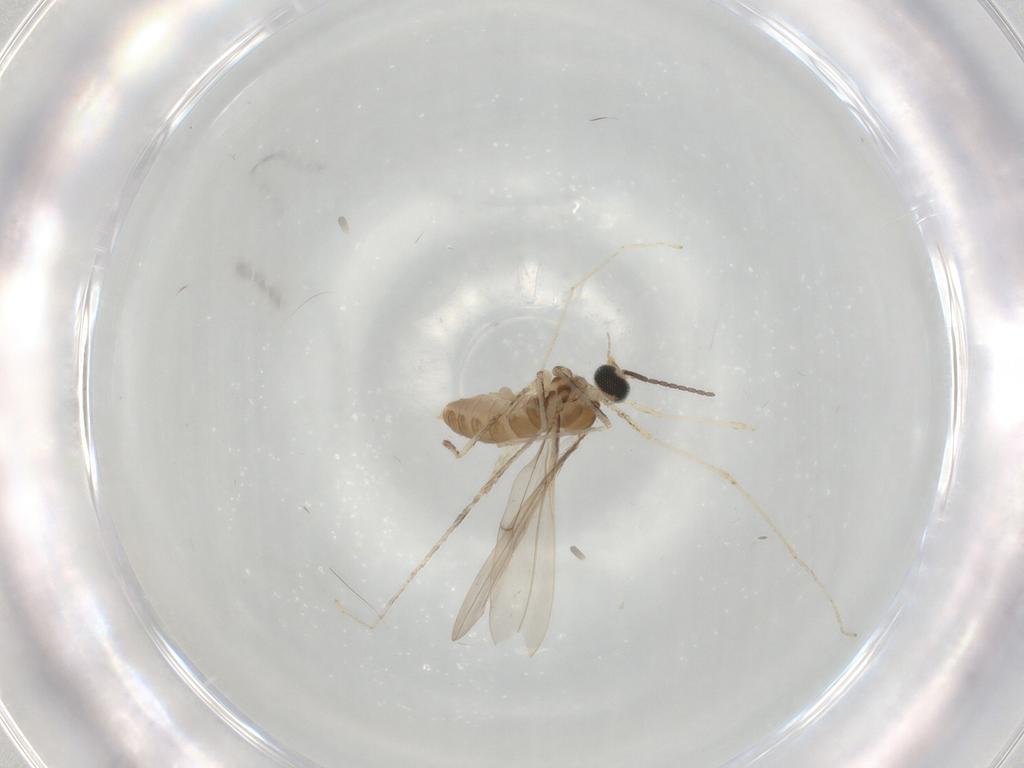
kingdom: Animalia
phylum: Arthropoda
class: Insecta
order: Diptera
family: Cecidomyiidae
